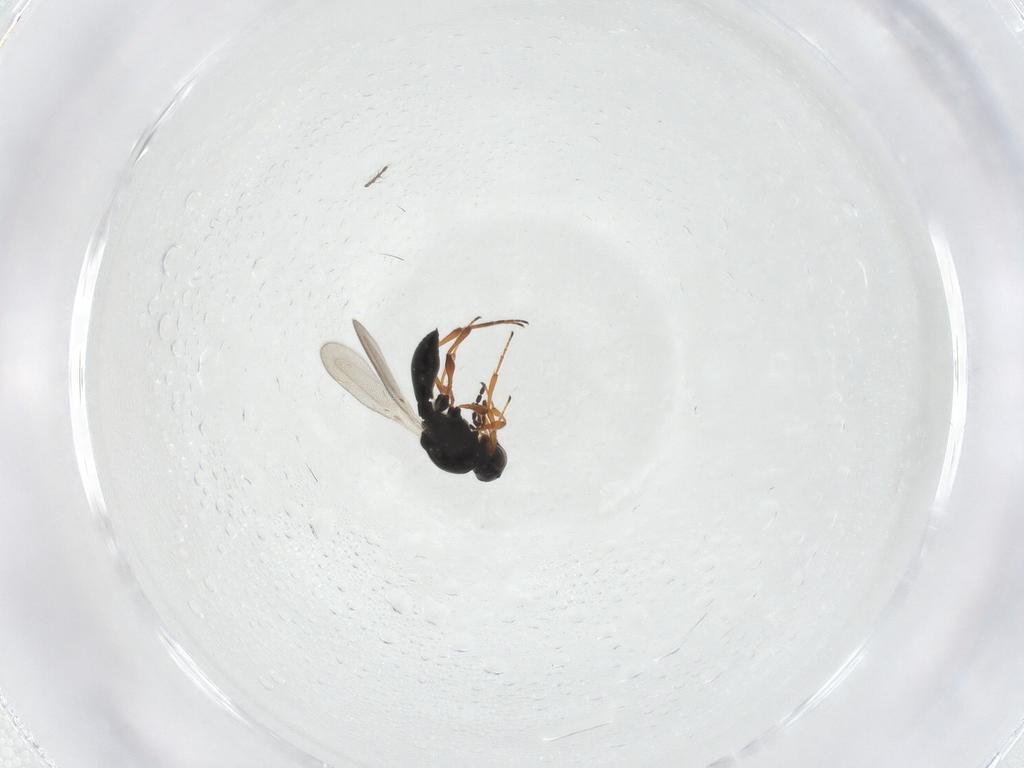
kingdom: Animalia
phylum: Arthropoda
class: Insecta
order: Hymenoptera
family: Platygastridae
